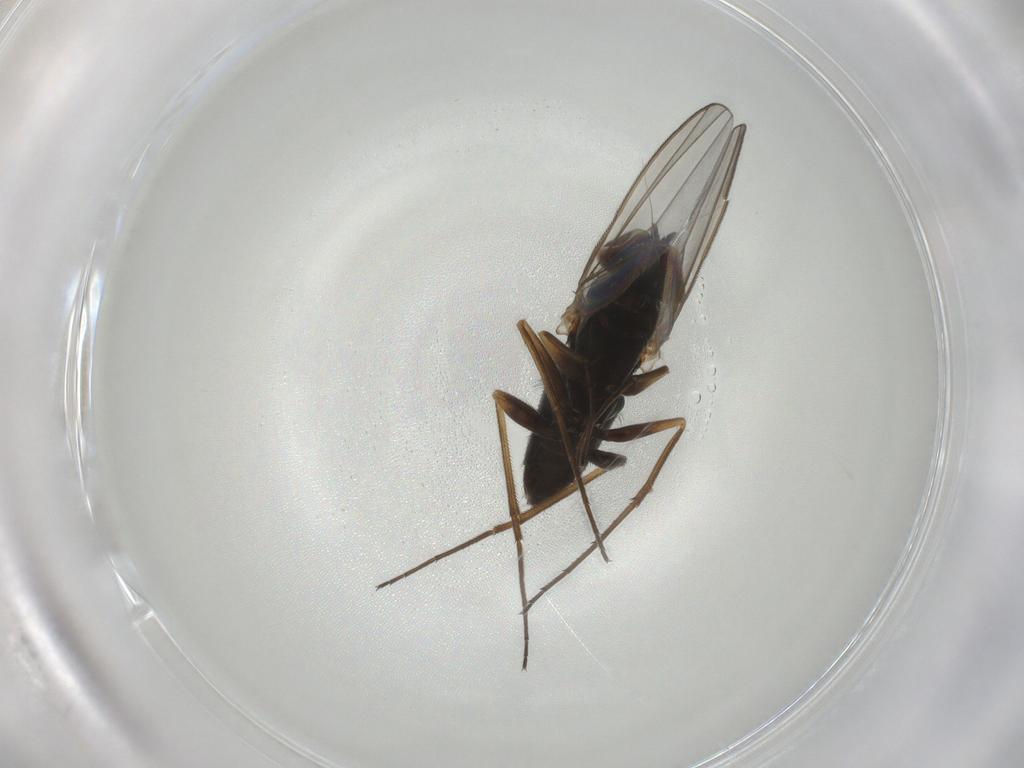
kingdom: Animalia
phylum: Arthropoda
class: Insecta
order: Diptera
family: Dolichopodidae
